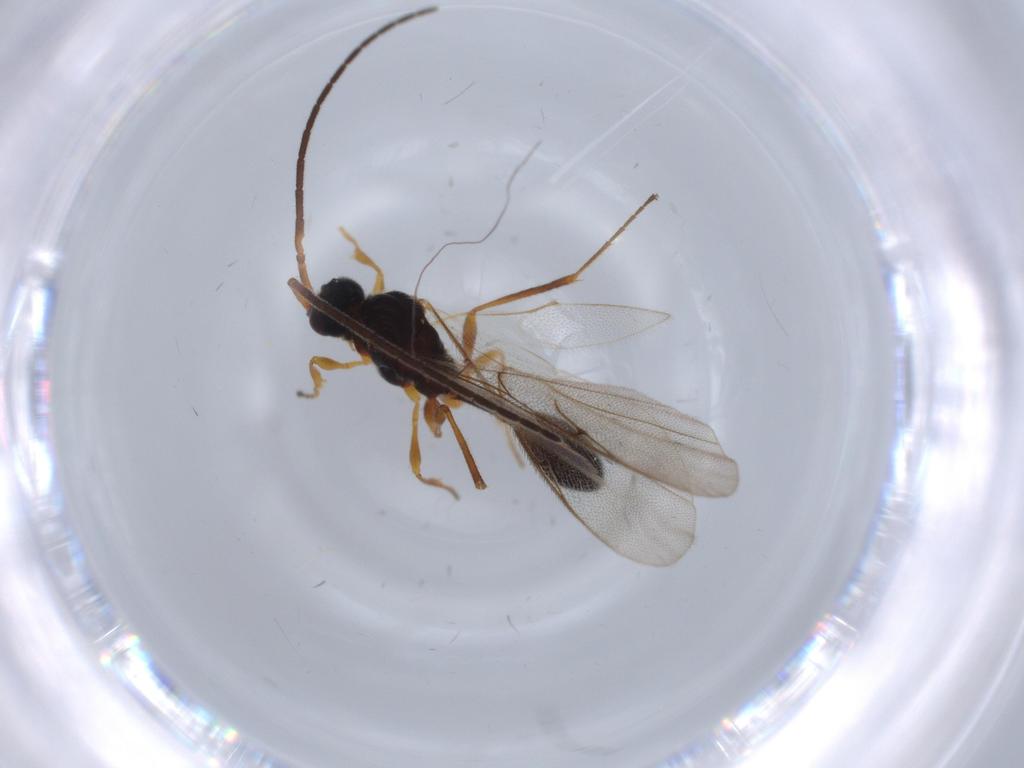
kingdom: Animalia
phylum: Arthropoda
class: Insecta
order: Hymenoptera
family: Diapriidae
